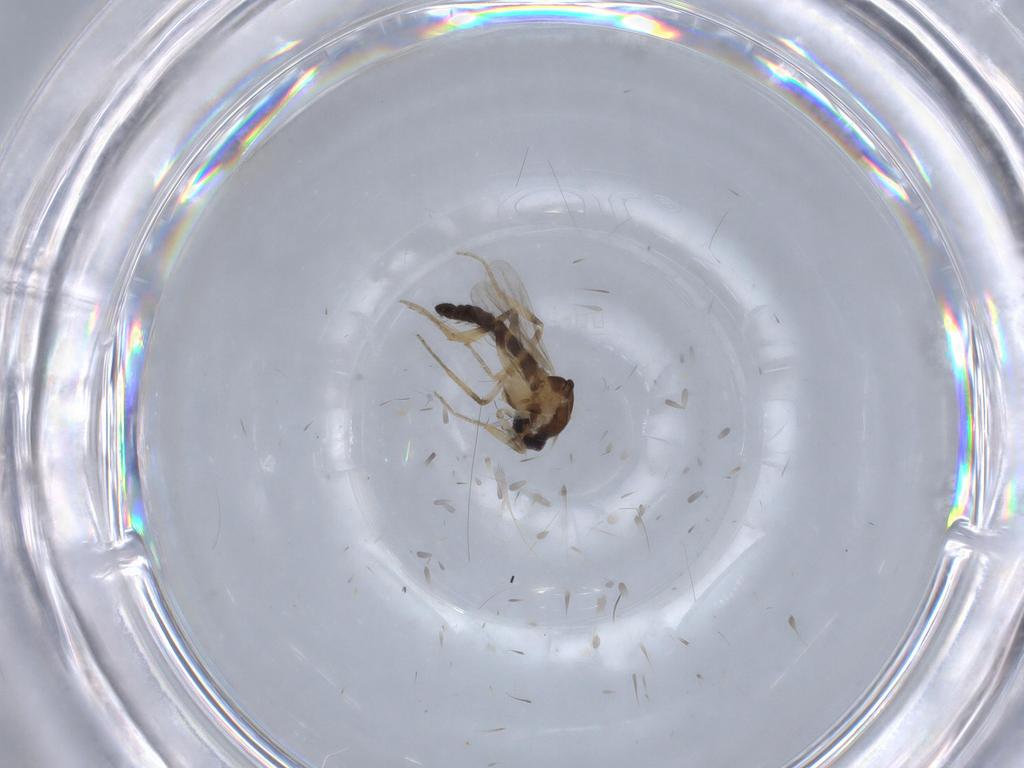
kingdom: Animalia
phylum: Arthropoda
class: Insecta
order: Diptera
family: Ceratopogonidae
